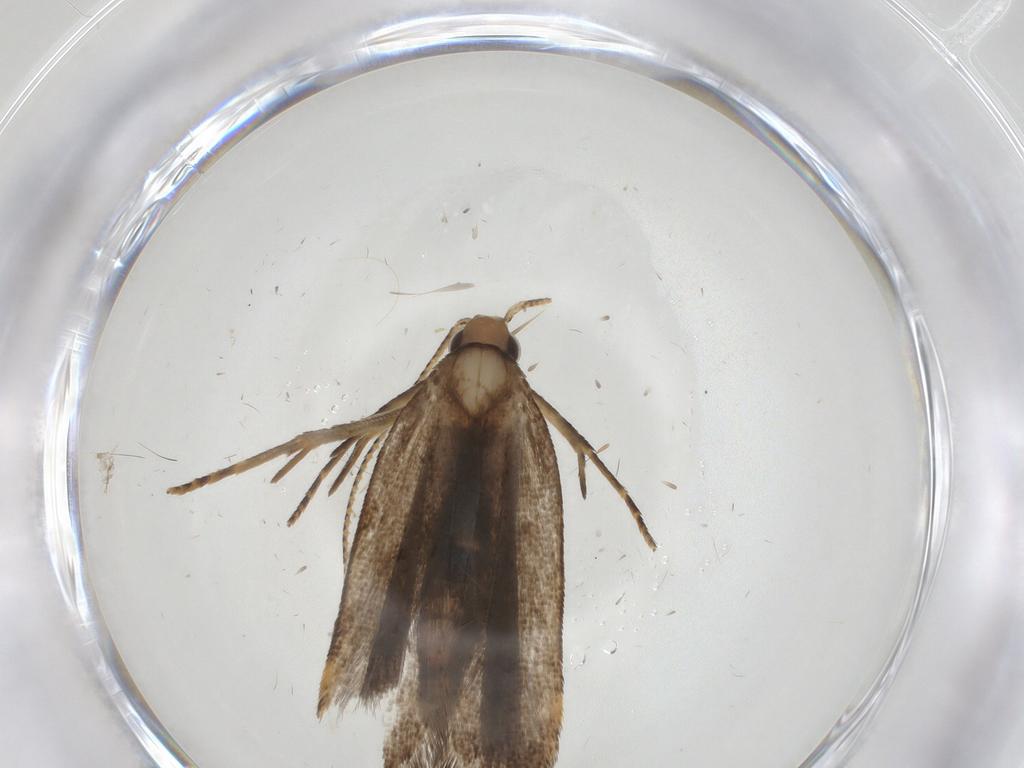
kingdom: Animalia
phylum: Arthropoda
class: Insecta
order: Lepidoptera
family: Gelechiidae
